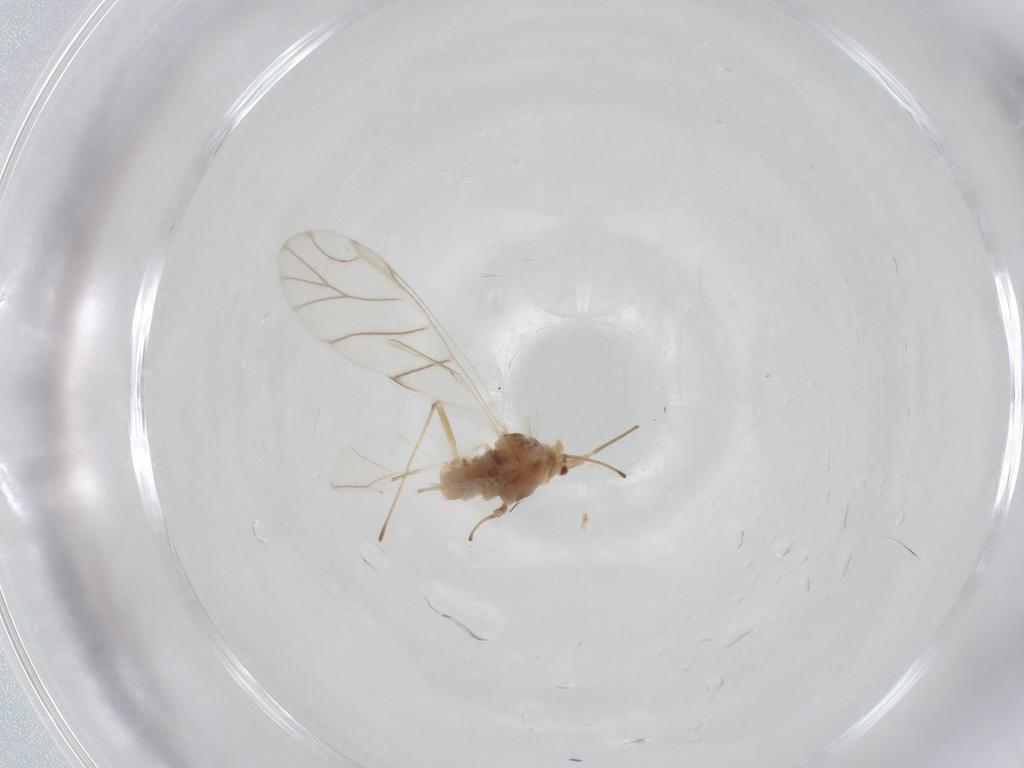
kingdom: Animalia
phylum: Arthropoda
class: Insecta
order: Hemiptera
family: Aphididae
